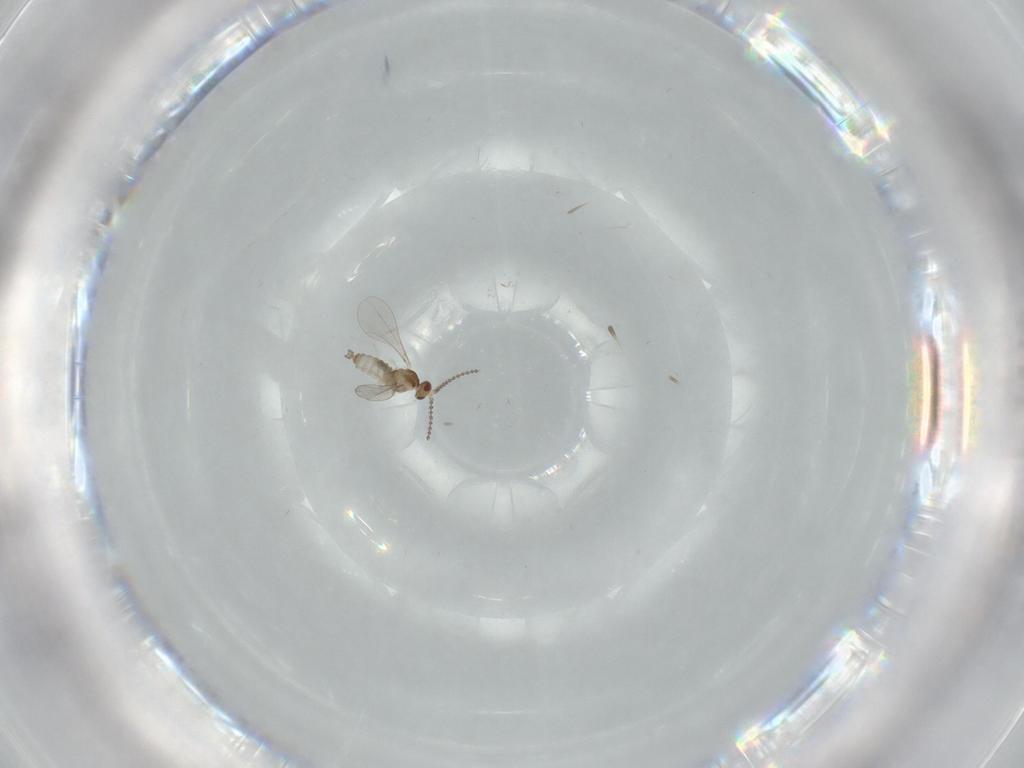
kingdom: Animalia
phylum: Arthropoda
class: Insecta
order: Diptera
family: Cecidomyiidae
